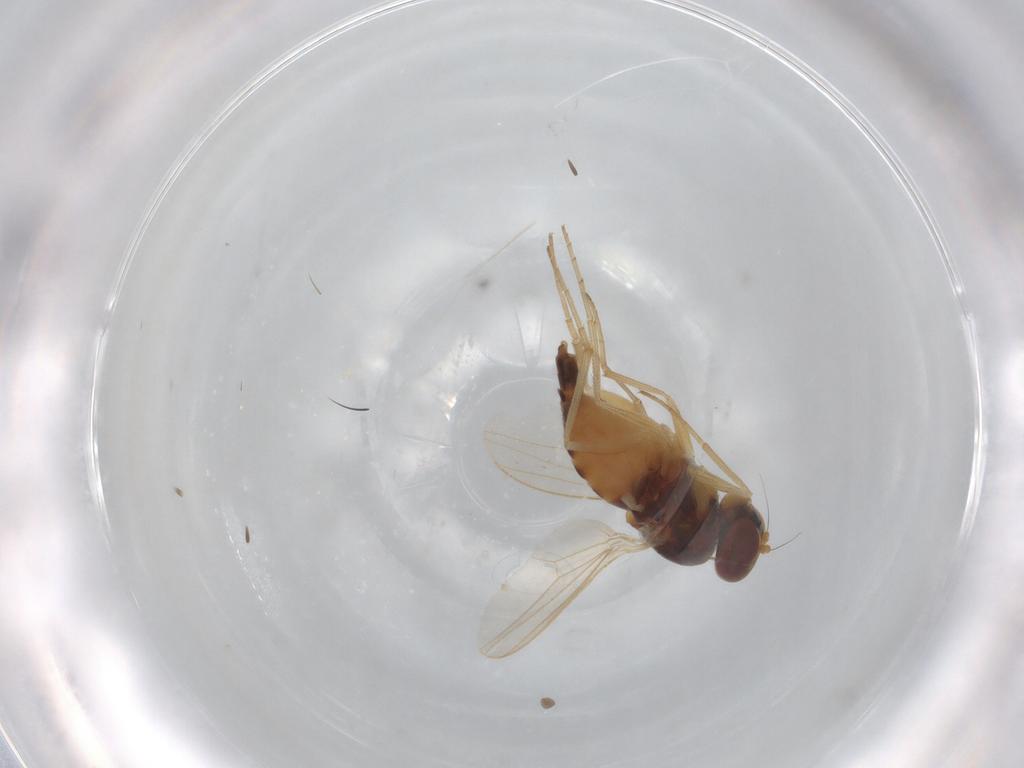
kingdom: Animalia
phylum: Arthropoda
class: Insecta
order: Diptera
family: Sciaridae
